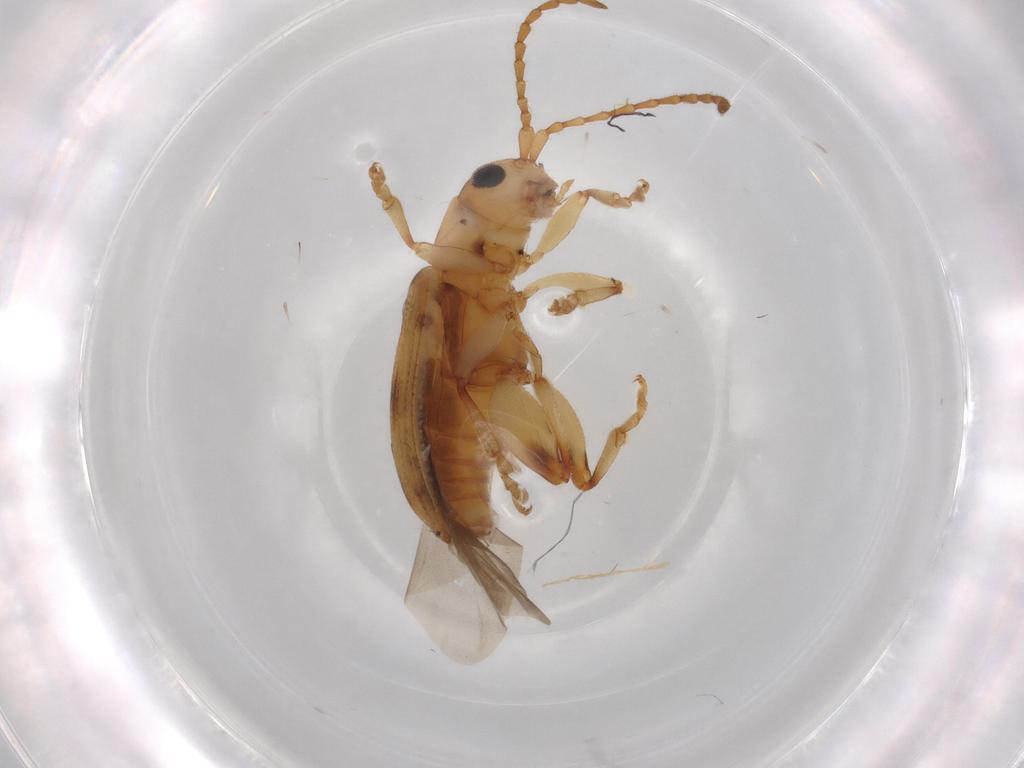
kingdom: Animalia
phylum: Arthropoda
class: Insecta
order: Coleoptera
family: Chrysomelidae
